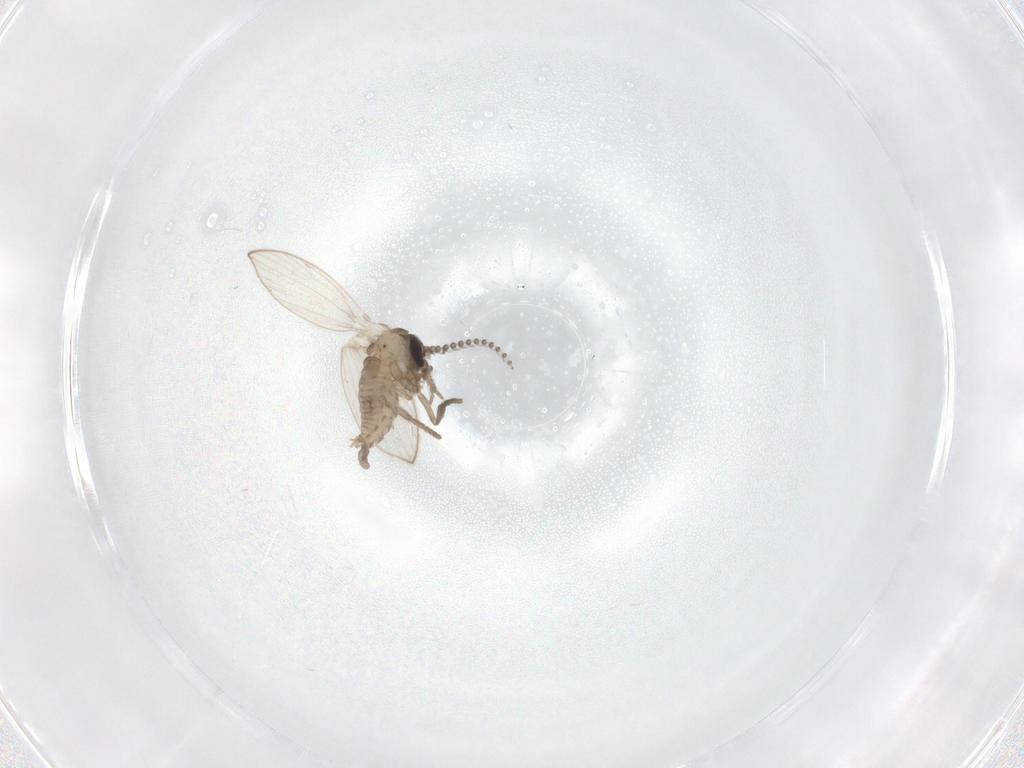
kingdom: Animalia
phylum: Arthropoda
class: Insecta
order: Diptera
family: Psychodidae
